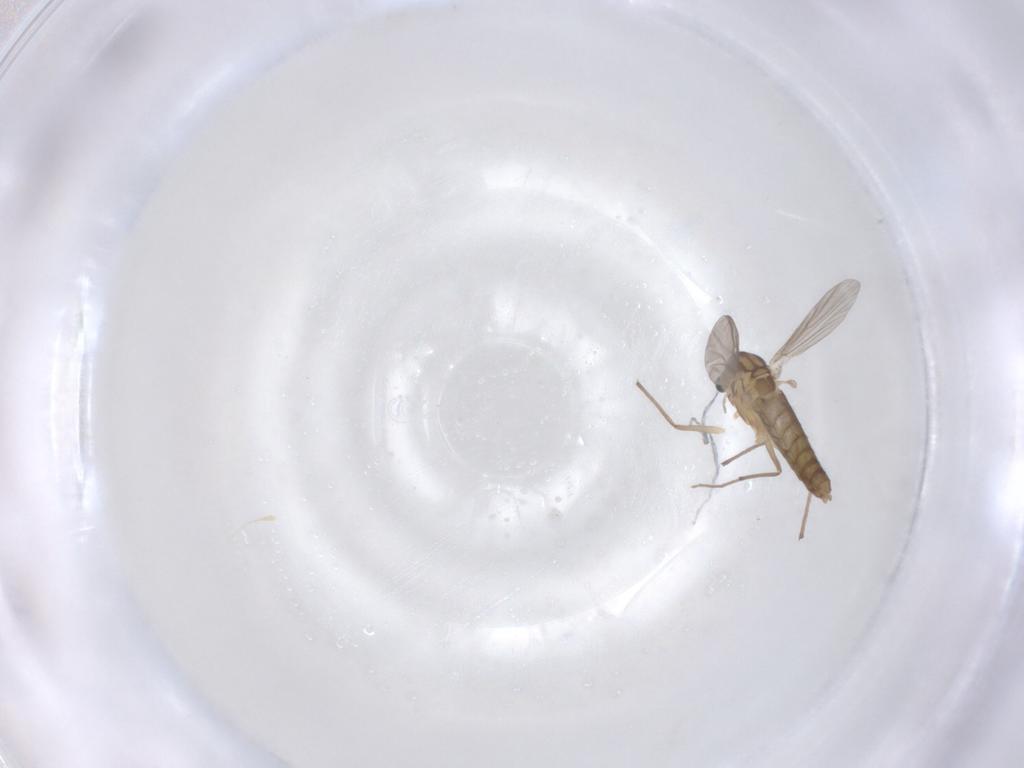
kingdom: Animalia
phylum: Arthropoda
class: Insecta
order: Diptera
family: Chironomidae
